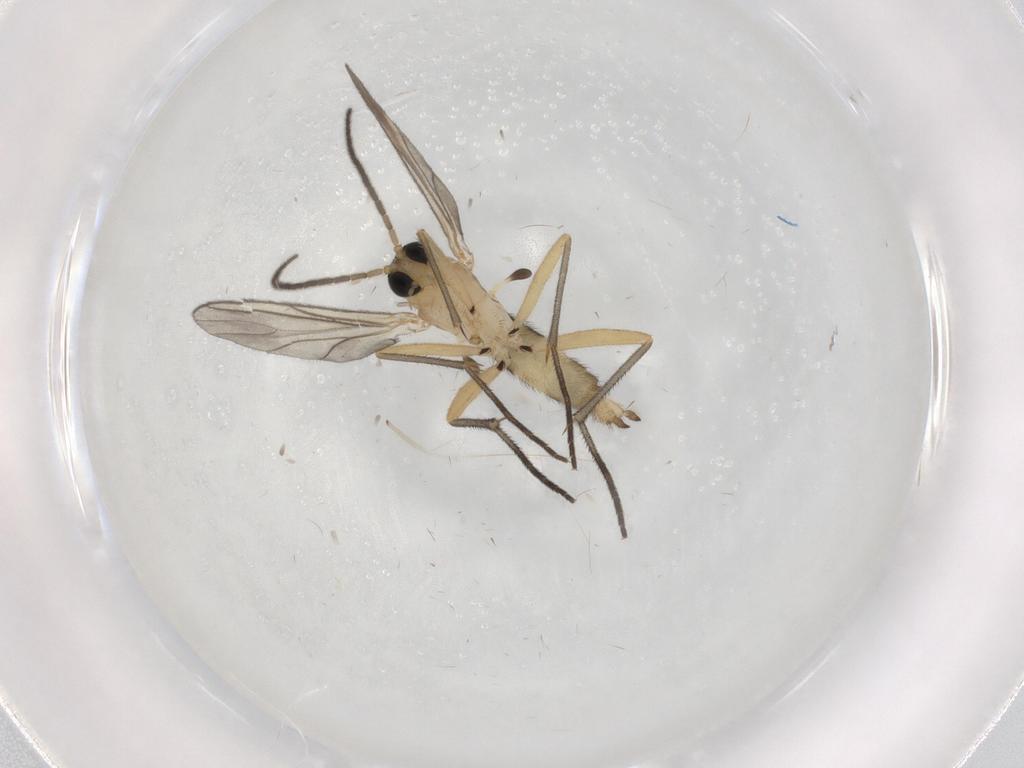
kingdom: Animalia
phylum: Arthropoda
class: Insecta
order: Diptera
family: Sciaridae
